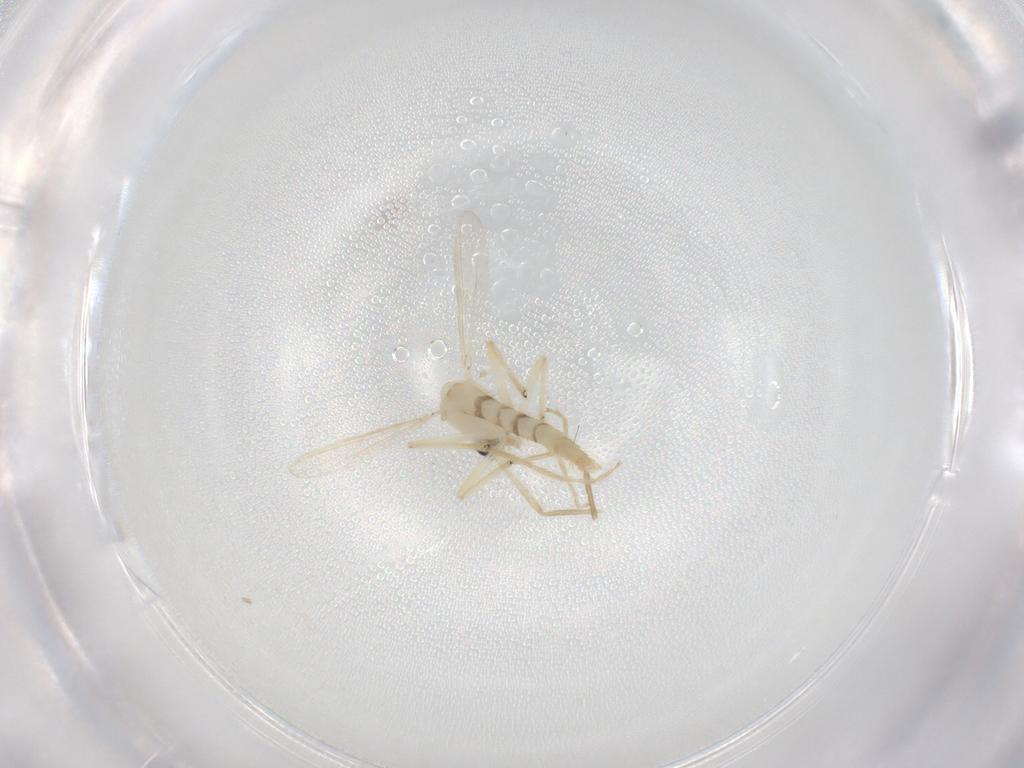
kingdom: Animalia
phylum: Arthropoda
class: Insecta
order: Diptera
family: Chironomidae
